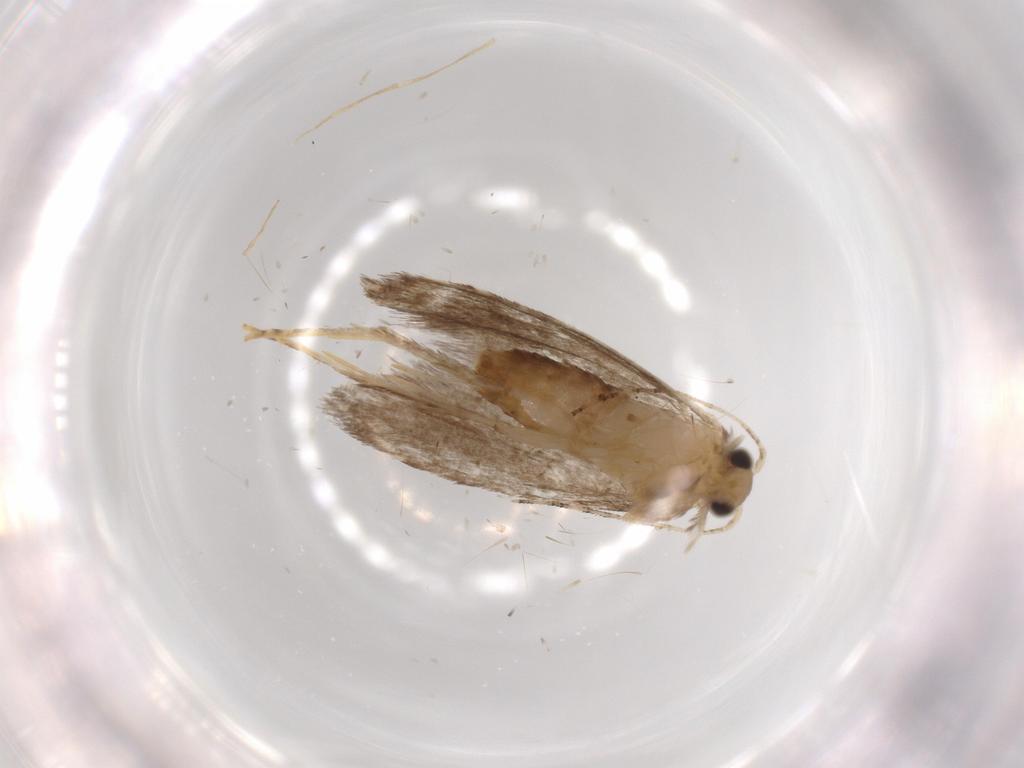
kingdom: Animalia
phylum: Arthropoda
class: Insecta
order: Lepidoptera
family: Tineidae
